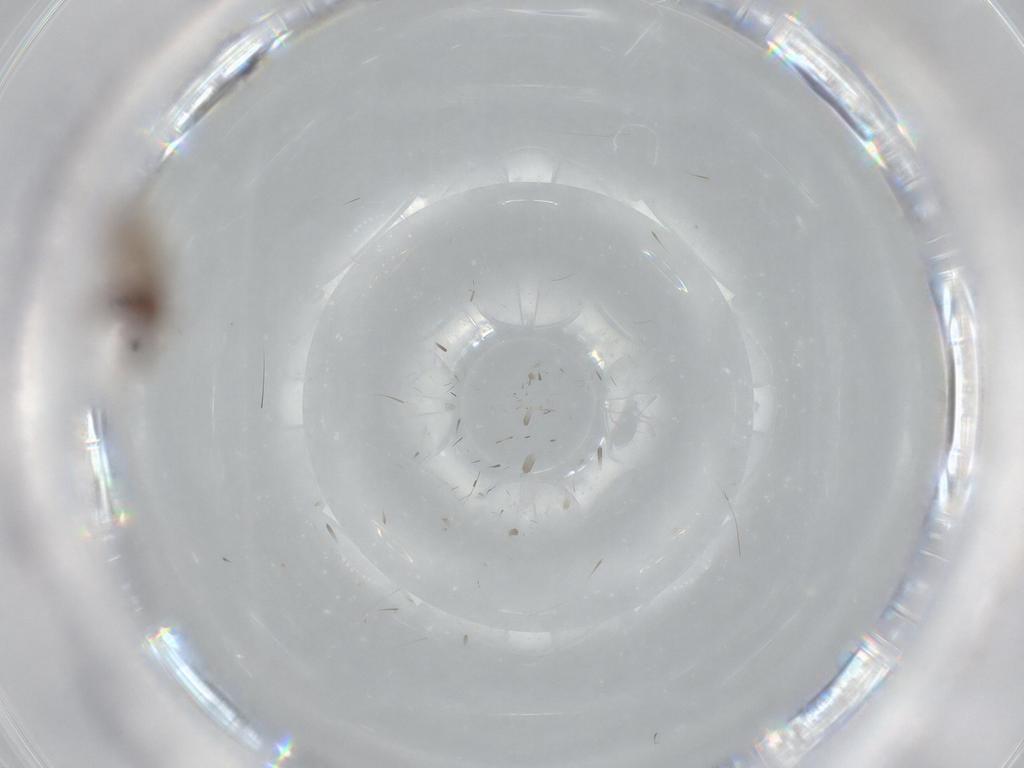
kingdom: Animalia
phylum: Arthropoda
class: Insecta
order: Hymenoptera
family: Diapriidae
